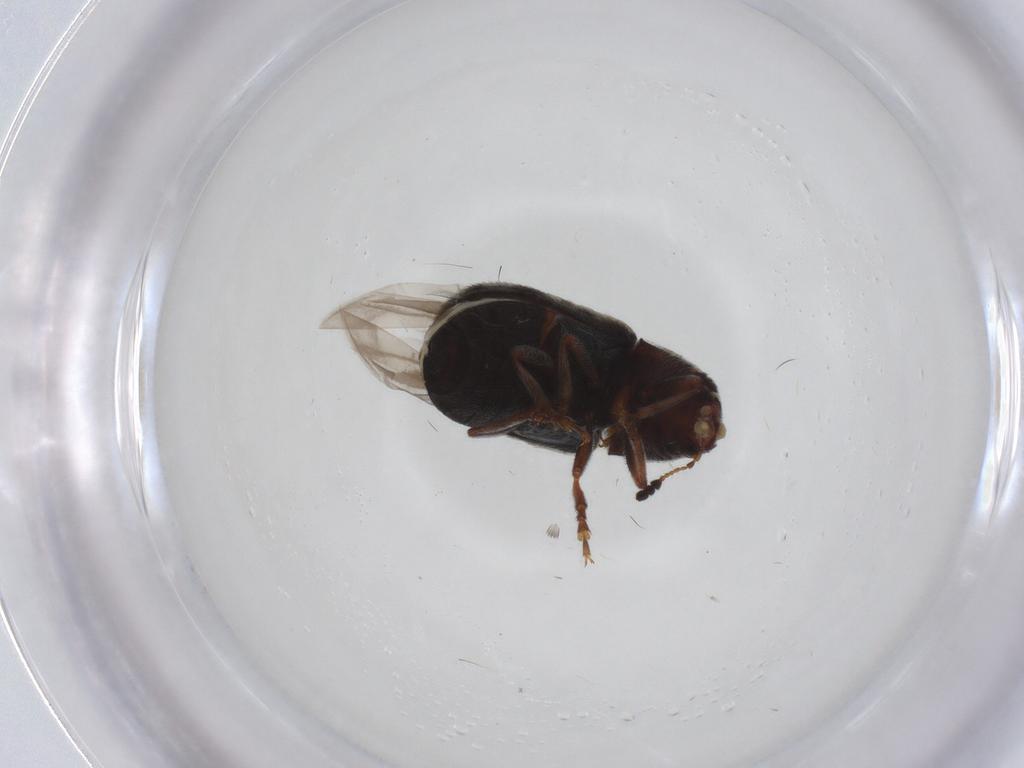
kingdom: Animalia
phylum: Arthropoda
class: Insecta
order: Coleoptera
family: Anthribidae
